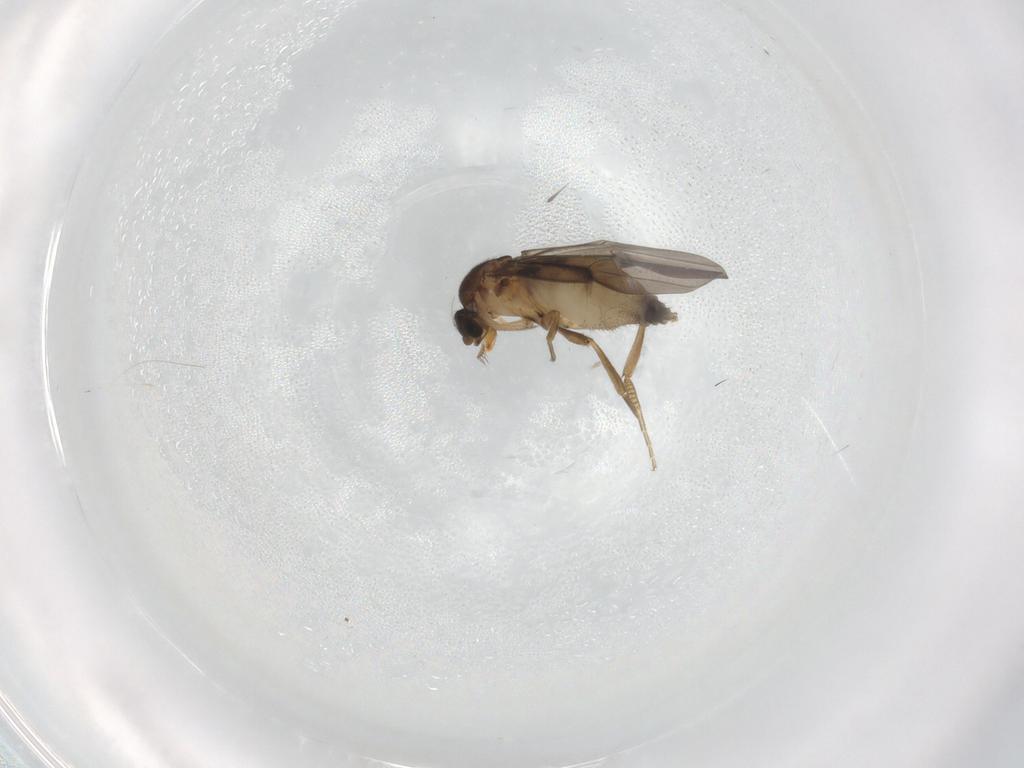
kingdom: Animalia
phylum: Arthropoda
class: Insecta
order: Diptera
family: Phoridae
